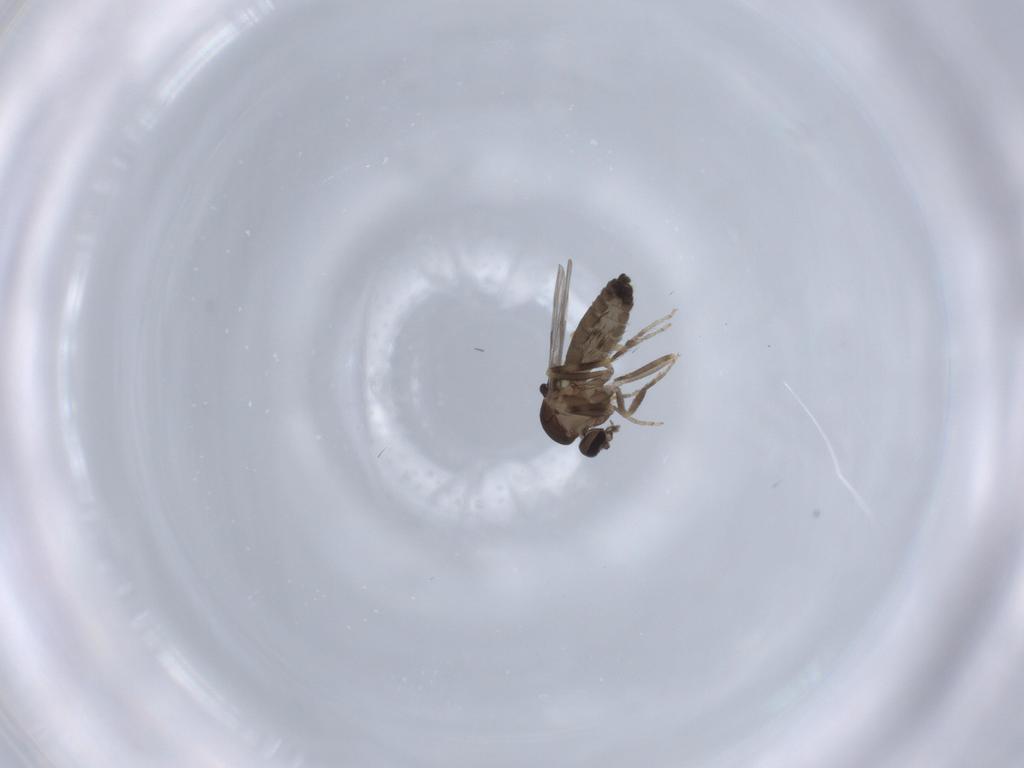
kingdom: Animalia
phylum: Arthropoda
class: Insecta
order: Diptera
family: Ceratopogonidae
